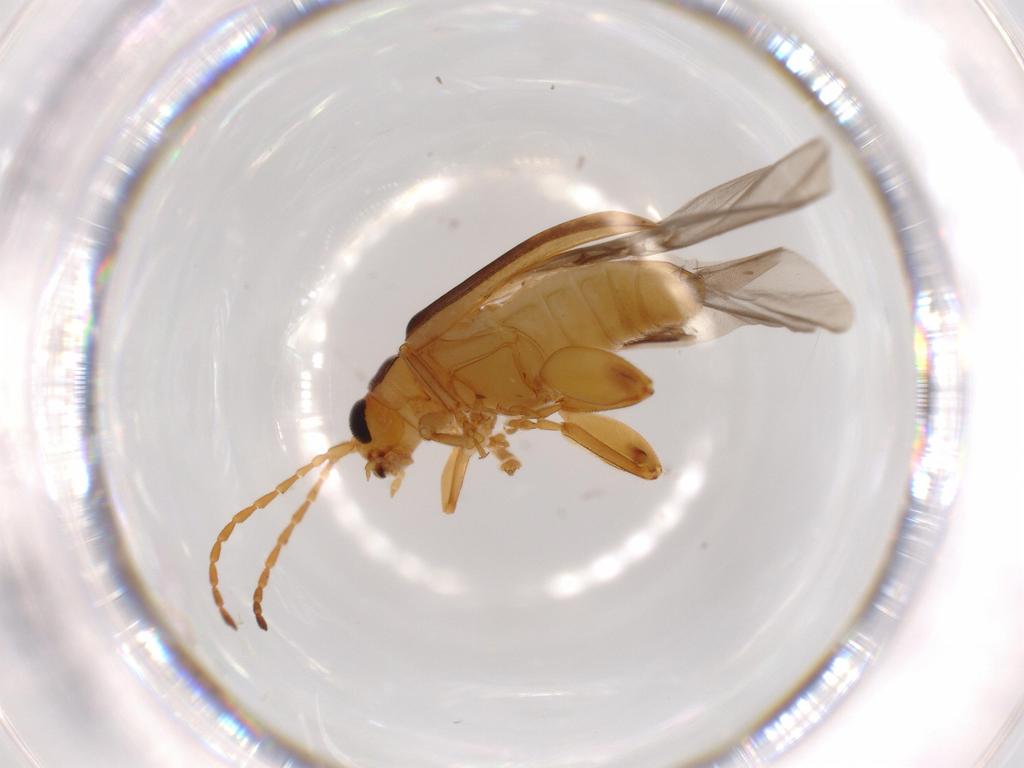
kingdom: Animalia
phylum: Arthropoda
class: Insecta
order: Coleoptera
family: Chrysomelidae
